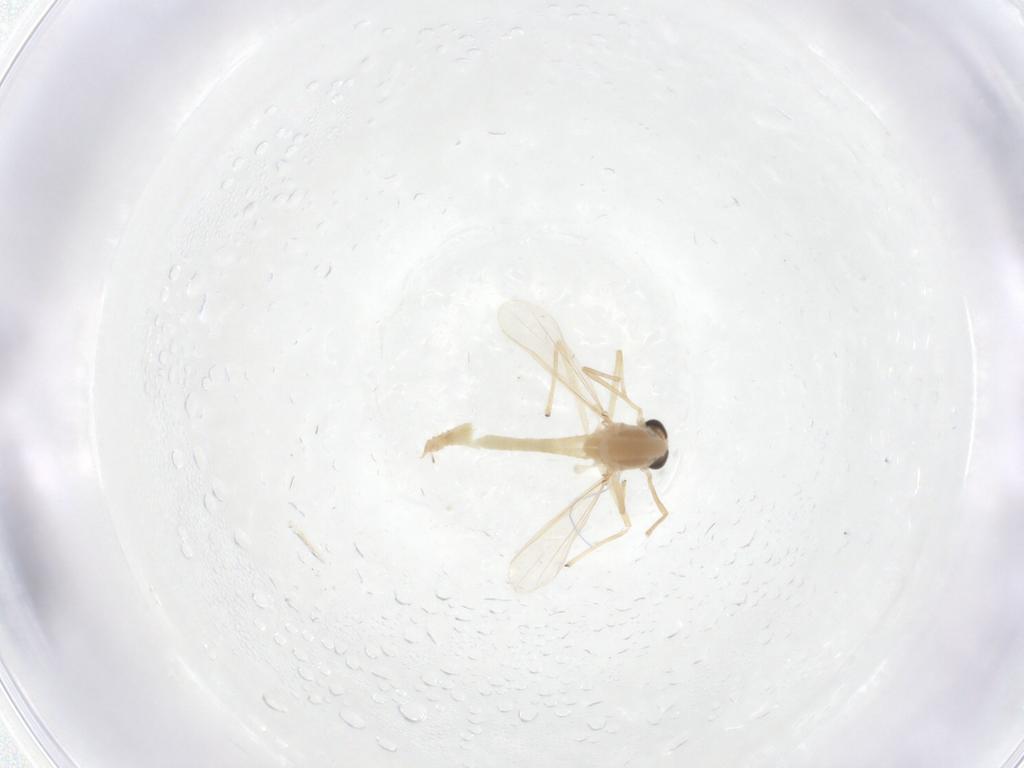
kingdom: Animalia
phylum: Arthropoda
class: Insecta
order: Diptera
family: Chironomidae
